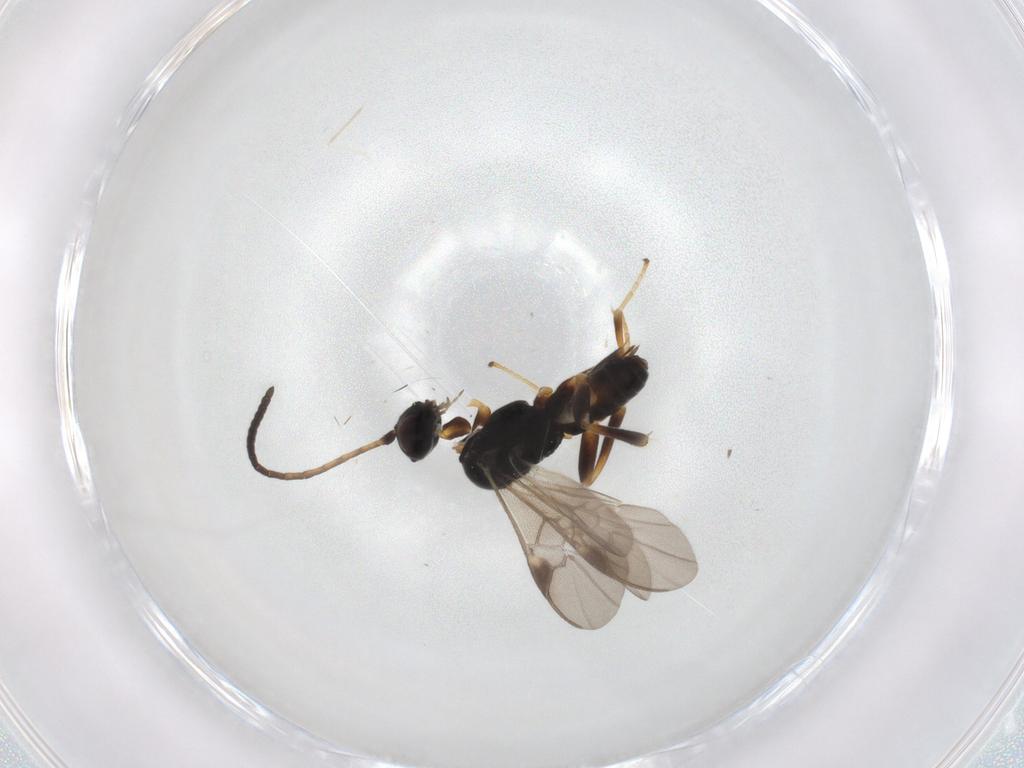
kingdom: Animalia
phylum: Arthropoda
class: Insecta
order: Hymenoptera
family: Braconidae
